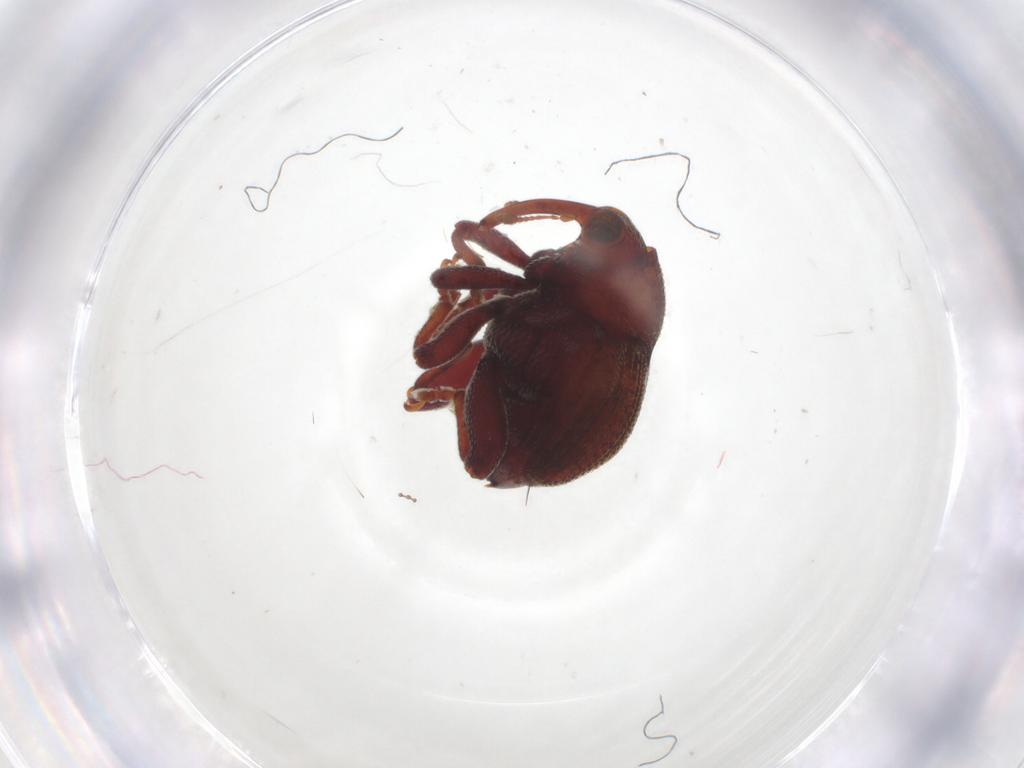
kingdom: Animalia
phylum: Arthropoda
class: Insecta
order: Coleoptera
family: Curculionidae
